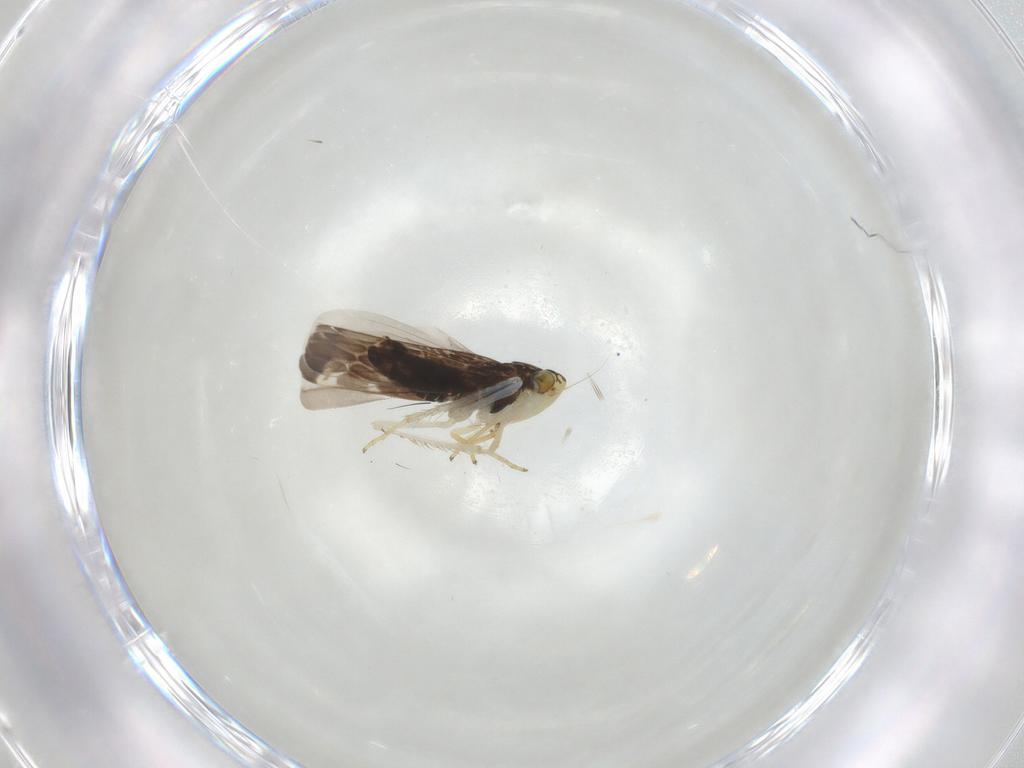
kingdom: Animalia
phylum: Arthropoda
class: Insecta
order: Hemiptera
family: Cicadellidae
